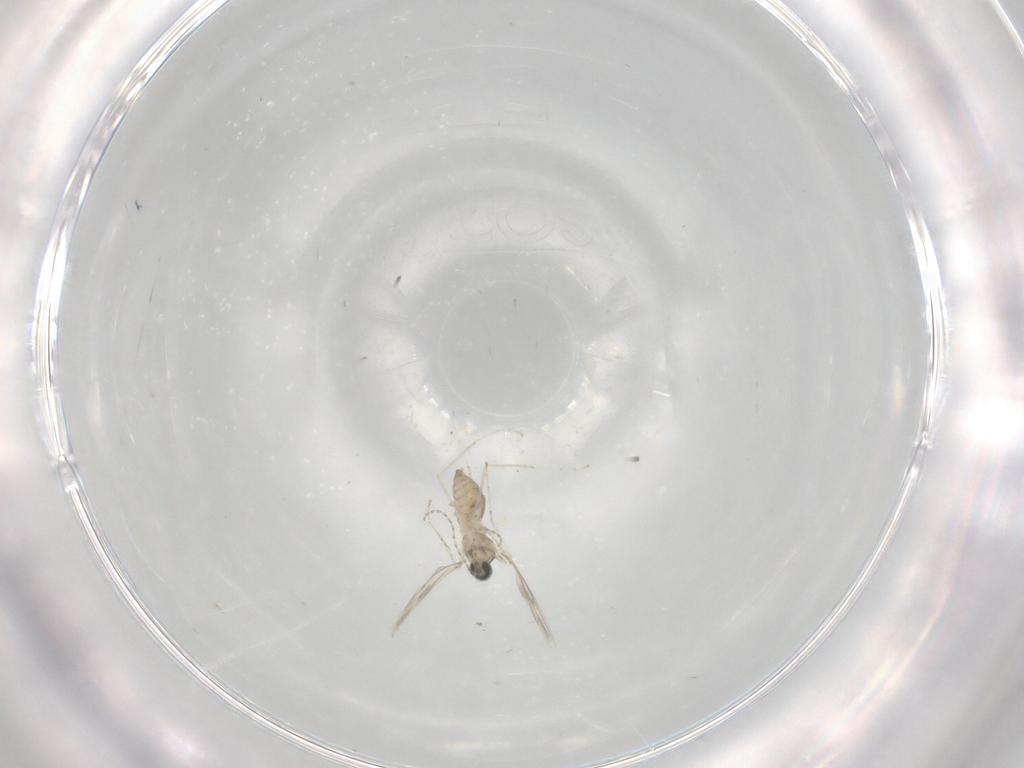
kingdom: Animalia
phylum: Arthropoda
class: Insecta
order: Diptera
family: Cecidomyiidae
